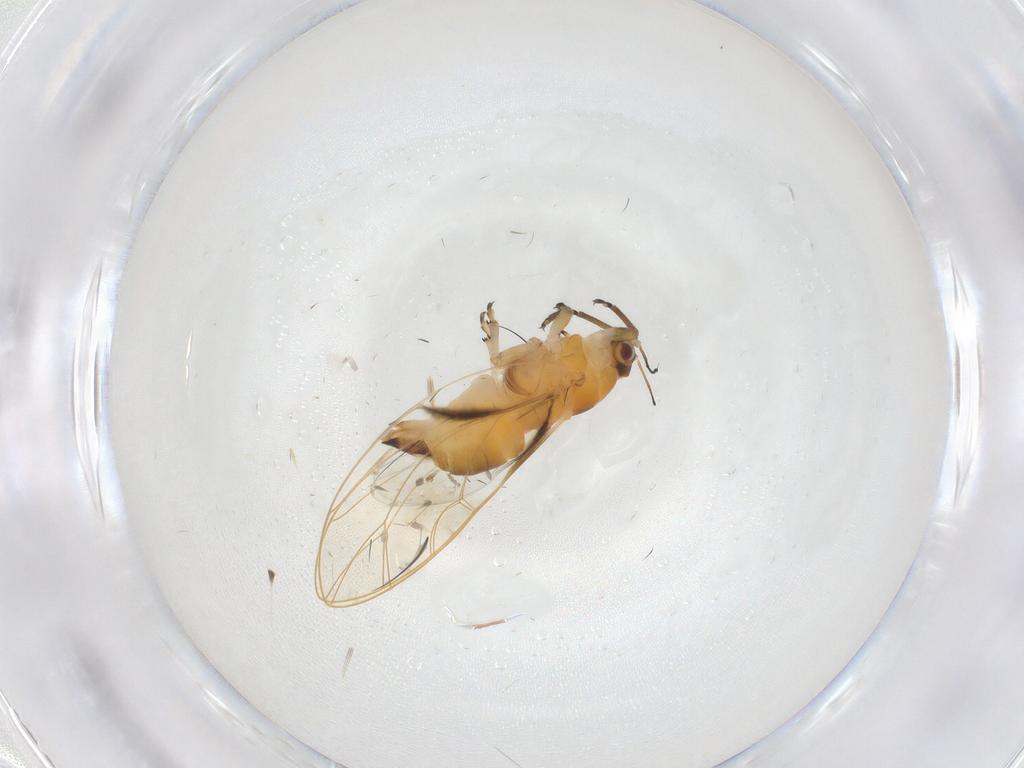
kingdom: Animalia
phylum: Arthropoda
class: Insecta
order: Hemiptera
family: Psylloidea_incertae_sedis
